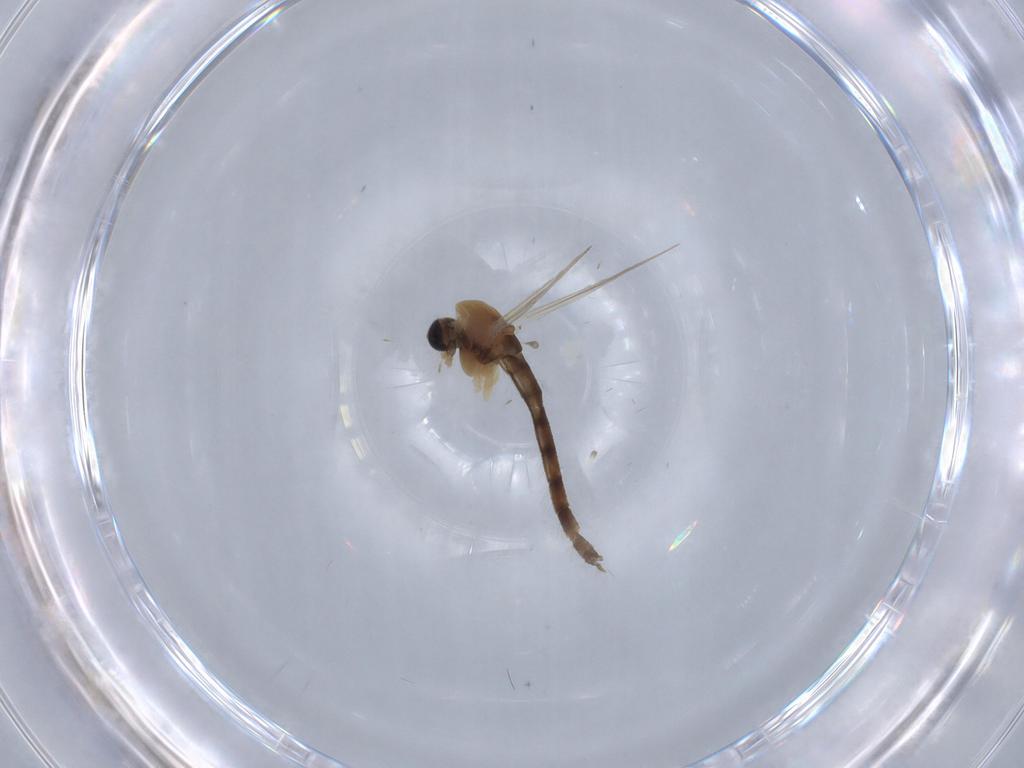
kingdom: Animalia
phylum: Arthropoda
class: Insecta
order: Diptera
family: Chironomidae
